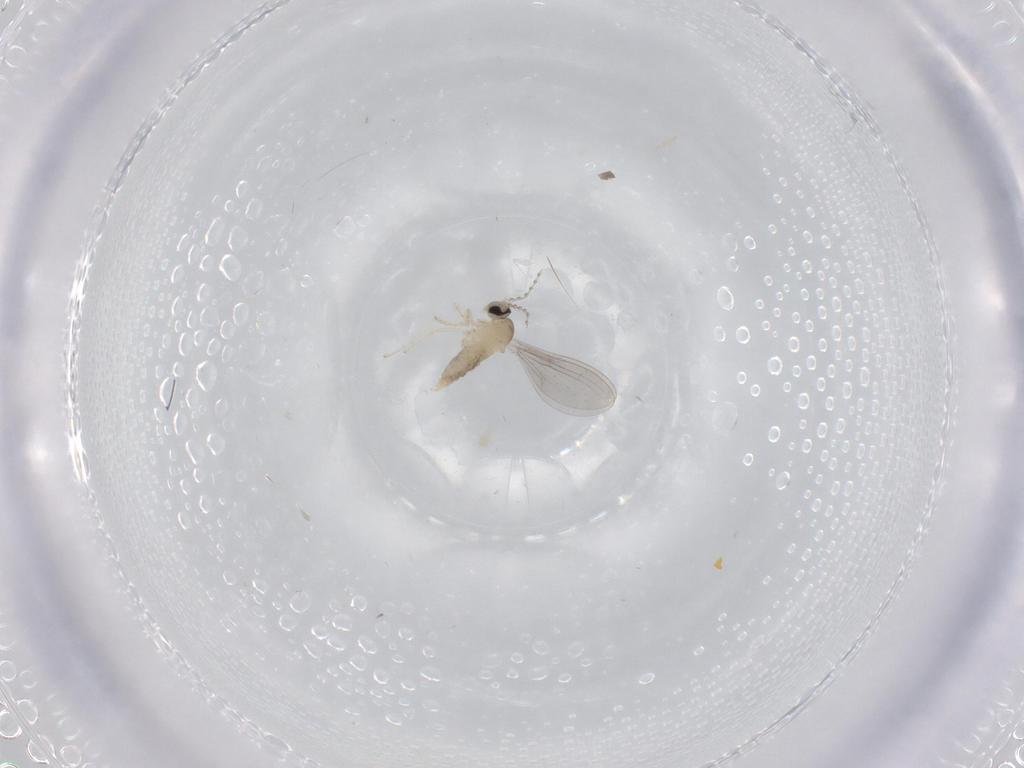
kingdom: Animalia
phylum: Arthropoda
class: Insecta
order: Diptera
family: Cecidomyiidae
